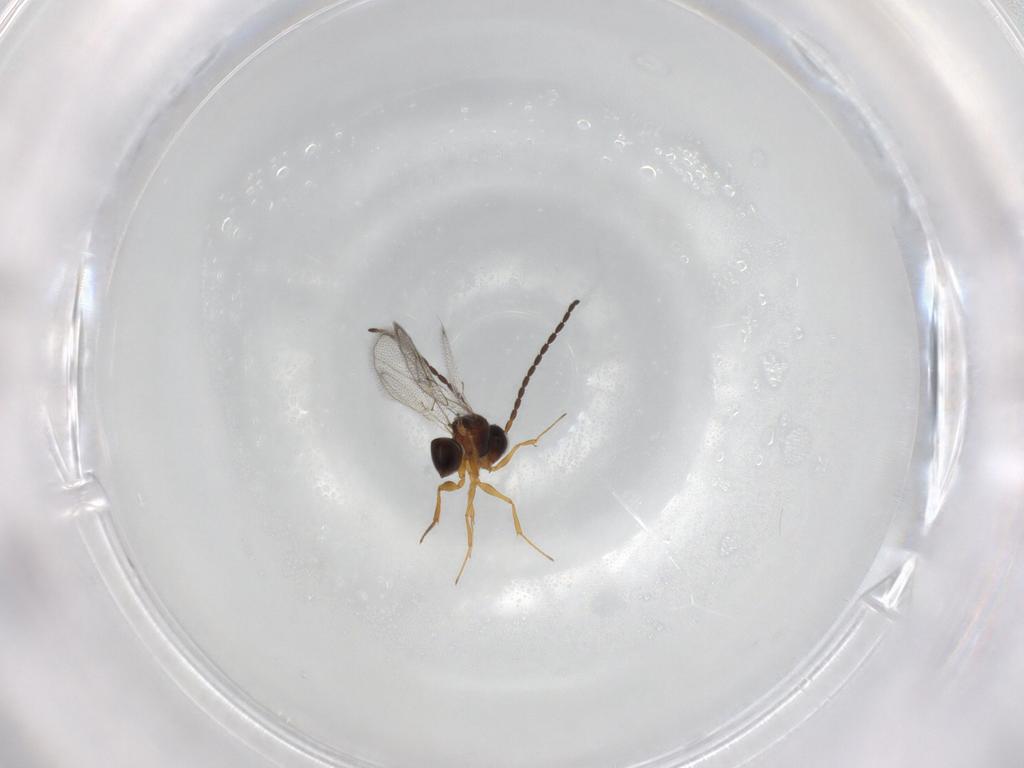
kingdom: Animalia
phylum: Arthropoda
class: Insecta
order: Hymenoptera
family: Figitidae
